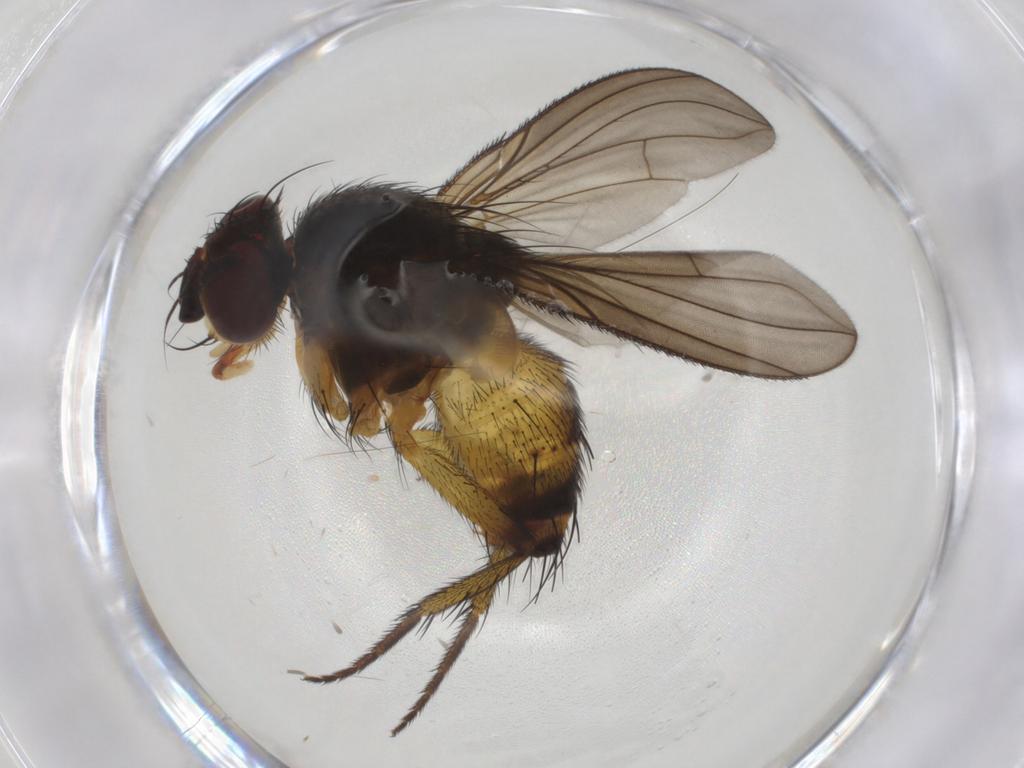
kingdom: Animalia
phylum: Arthropoda
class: Insecta
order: Diptera
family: Tachinidae
